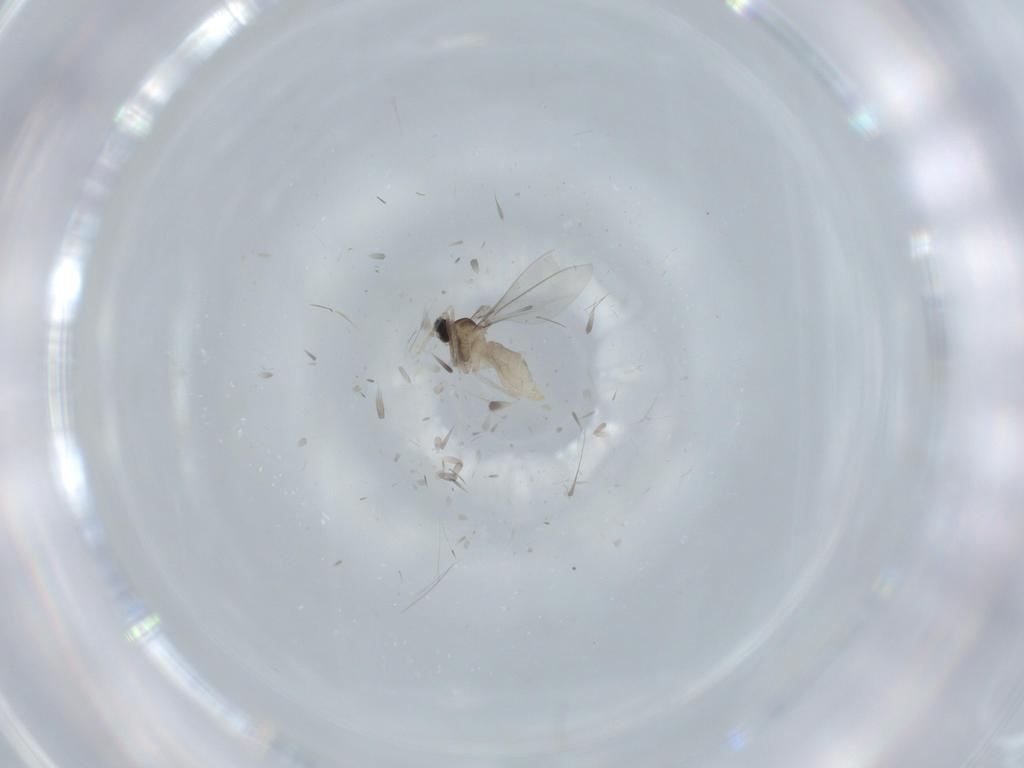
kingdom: Animalia
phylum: Arthropoda
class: Insecta
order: Diptera
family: Cecidomyiidae
